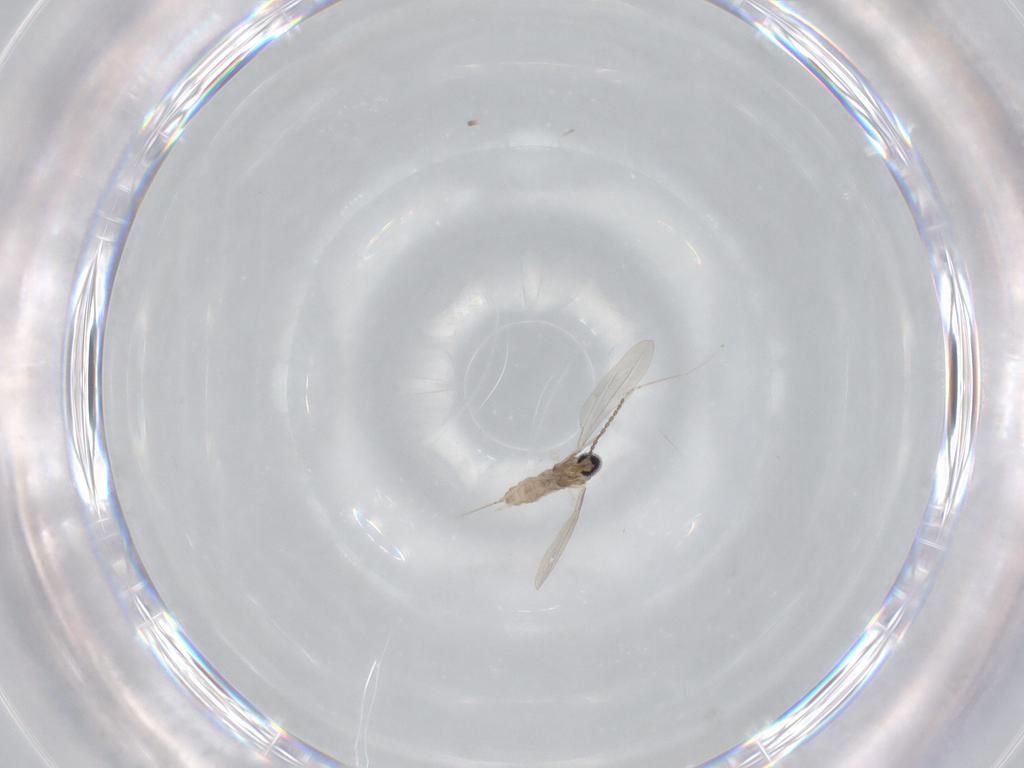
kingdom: Animalia
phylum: Arthropoda
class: Insecta
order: Diptera
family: Cecidomyiidae
